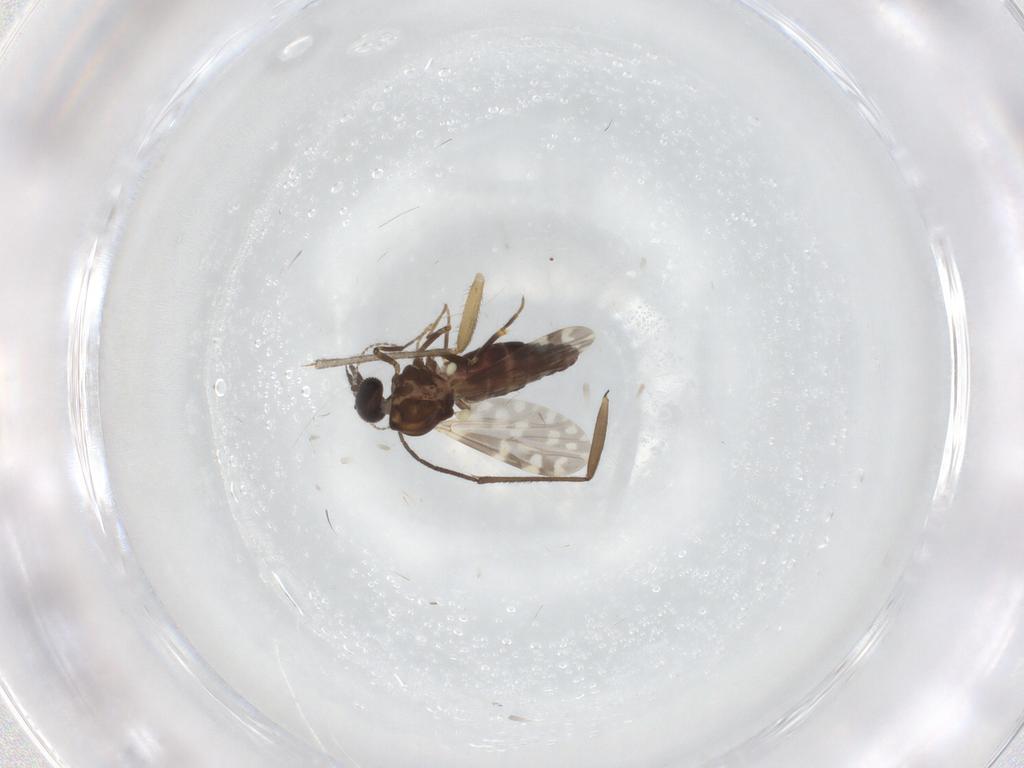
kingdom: Animalia
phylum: Arthropoda
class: Insecta
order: Diptera
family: Ceratopogonidae
